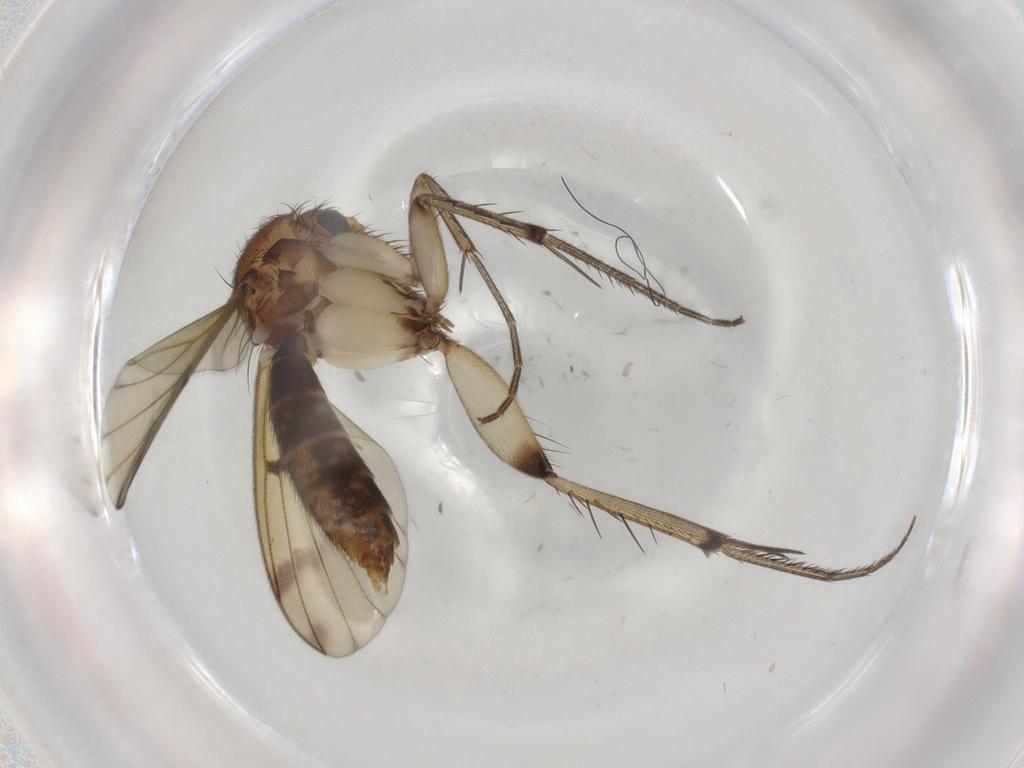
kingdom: Animalia
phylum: Arthropoda
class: Insecta
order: Diptera
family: Mycetophilidae
